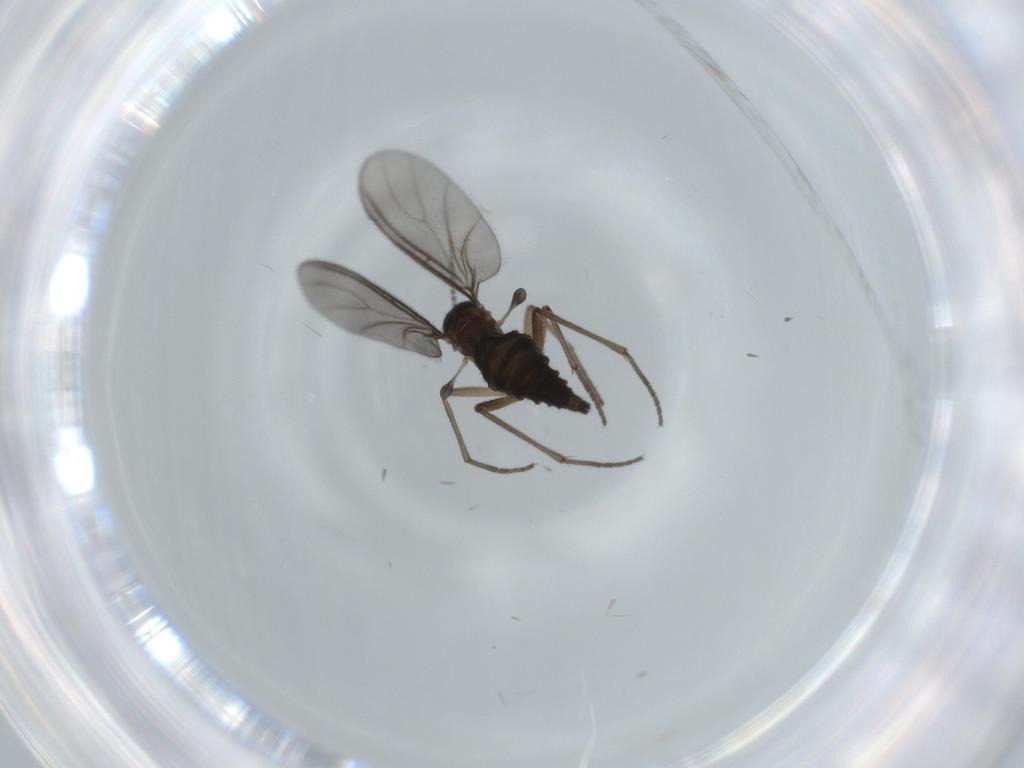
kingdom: Animalia
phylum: Arthropoda
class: Insecta
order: Diptera
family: Sciaridae
